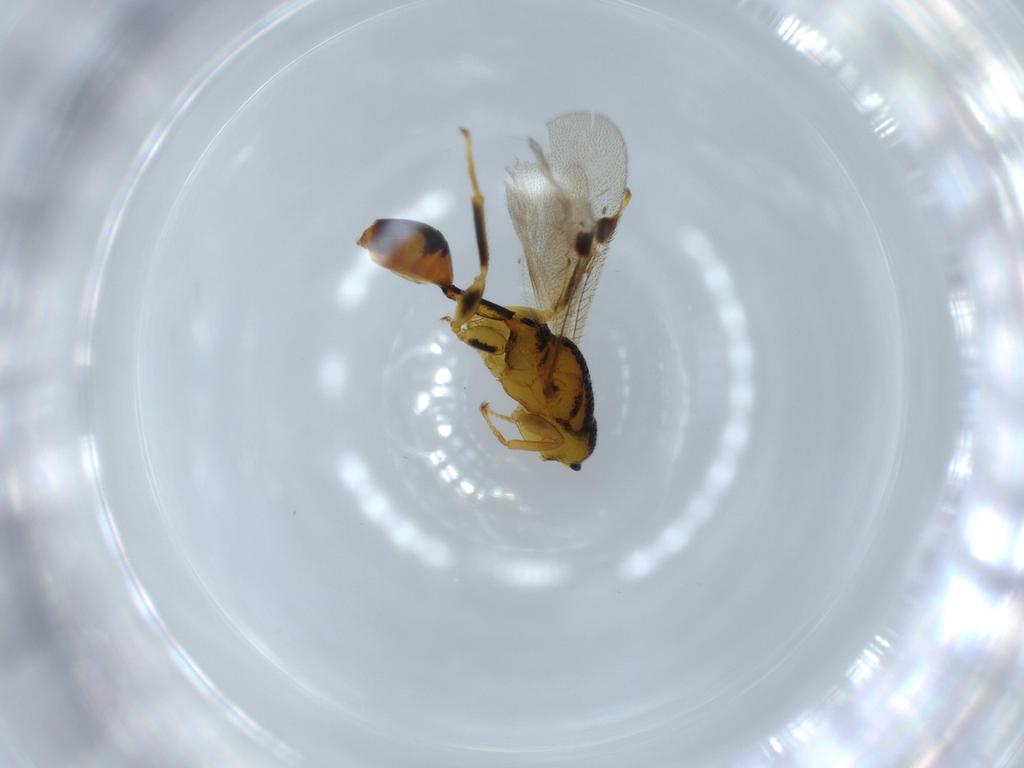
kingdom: Animalia
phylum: Arthropoda
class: Insecta
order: Hymenoptera
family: Eurytomidae
